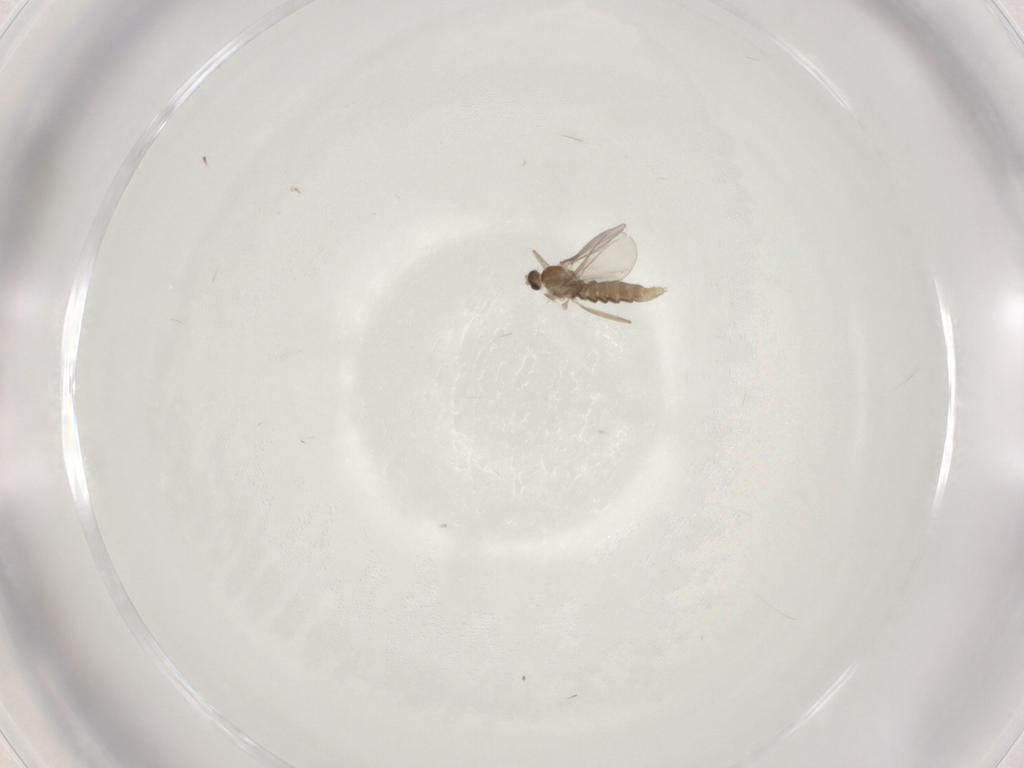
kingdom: Animalia
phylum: Arthropoda
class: Insecta
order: Diptera
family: Cecidomyiidae
